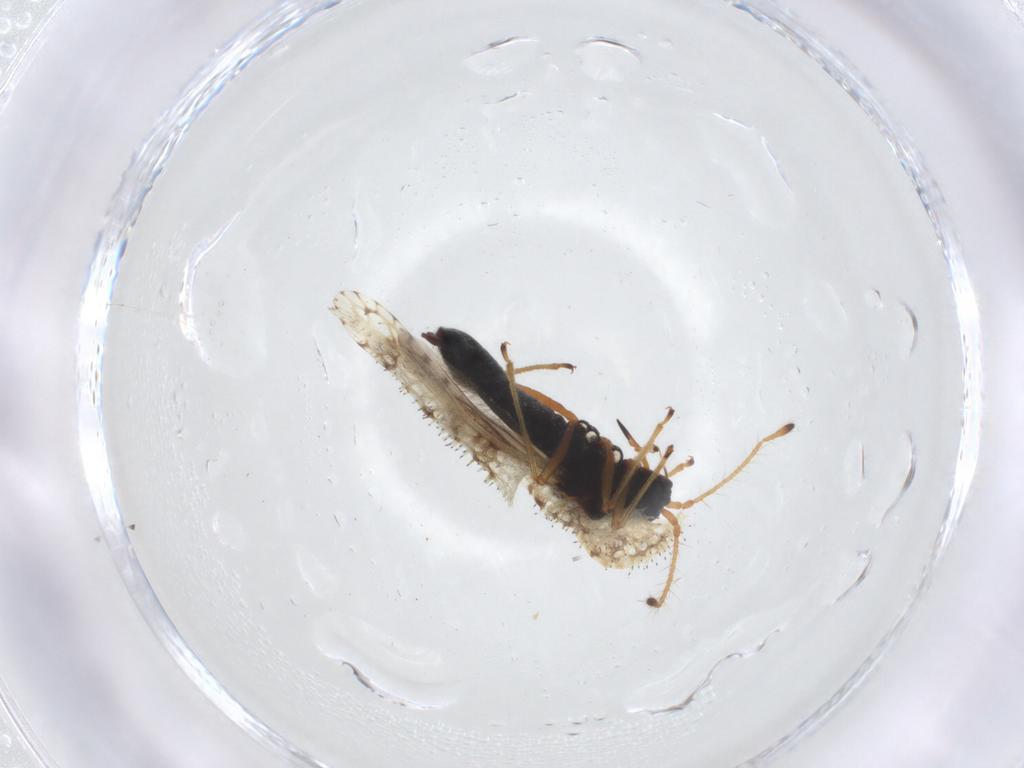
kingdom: Animalia
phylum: Arthropoda
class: Insecta
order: Hemiptera
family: Tingidae
